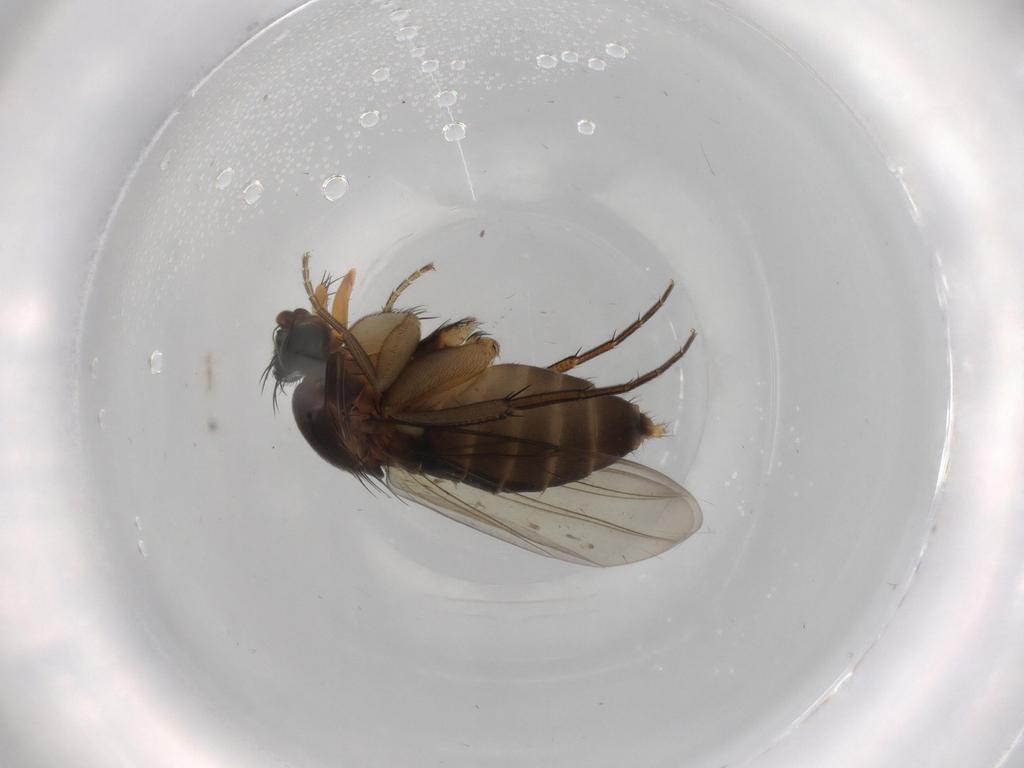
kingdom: Animalia
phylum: Arthropoda
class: Insecta
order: Diptera
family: Phoridae
